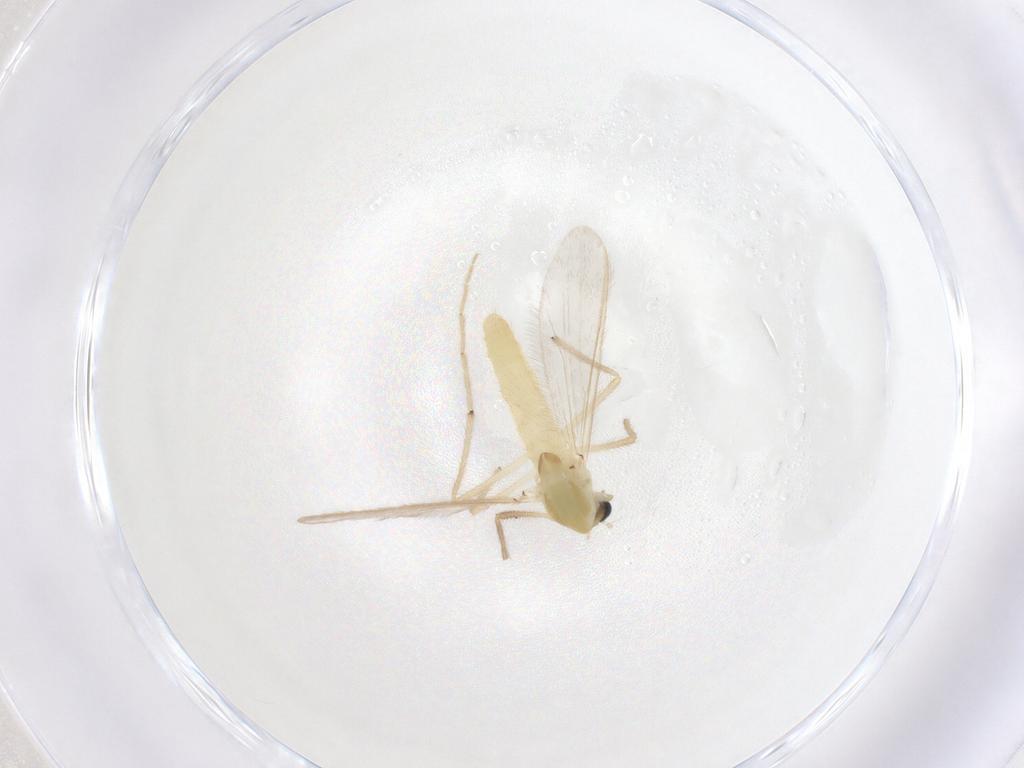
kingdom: Animalia
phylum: Arthropoda
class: Insecta
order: Diptera
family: Chironomidae
